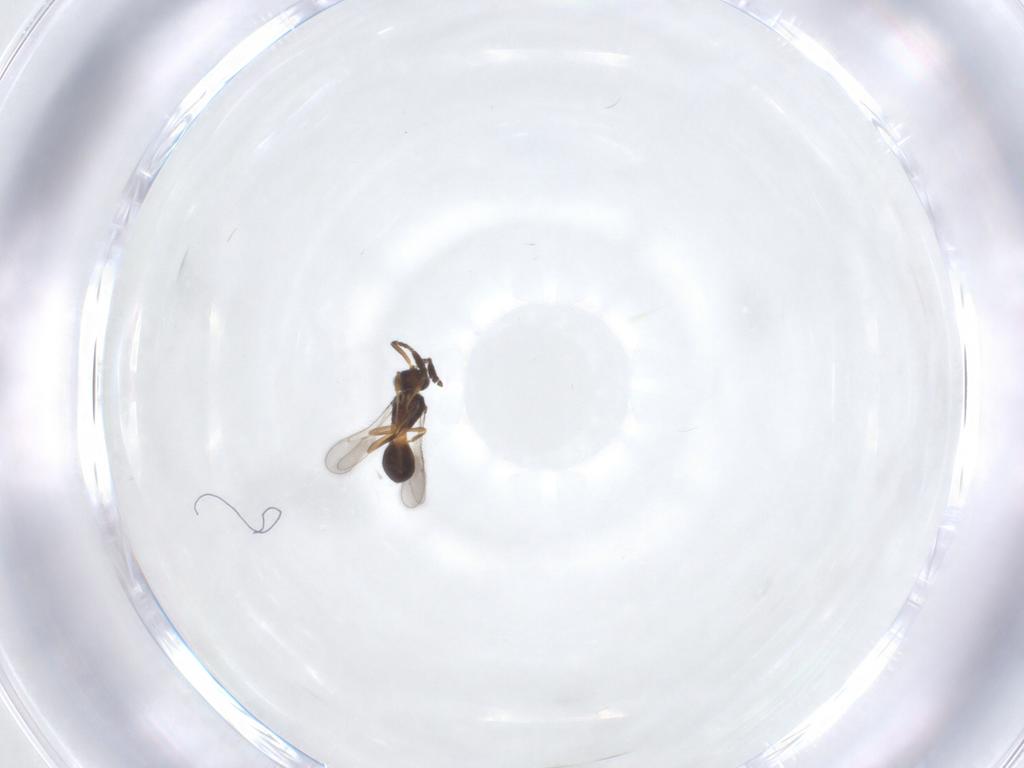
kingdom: Animalia
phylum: Arthropoda
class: Insecta
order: Hymenoptera
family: Scelionidae
